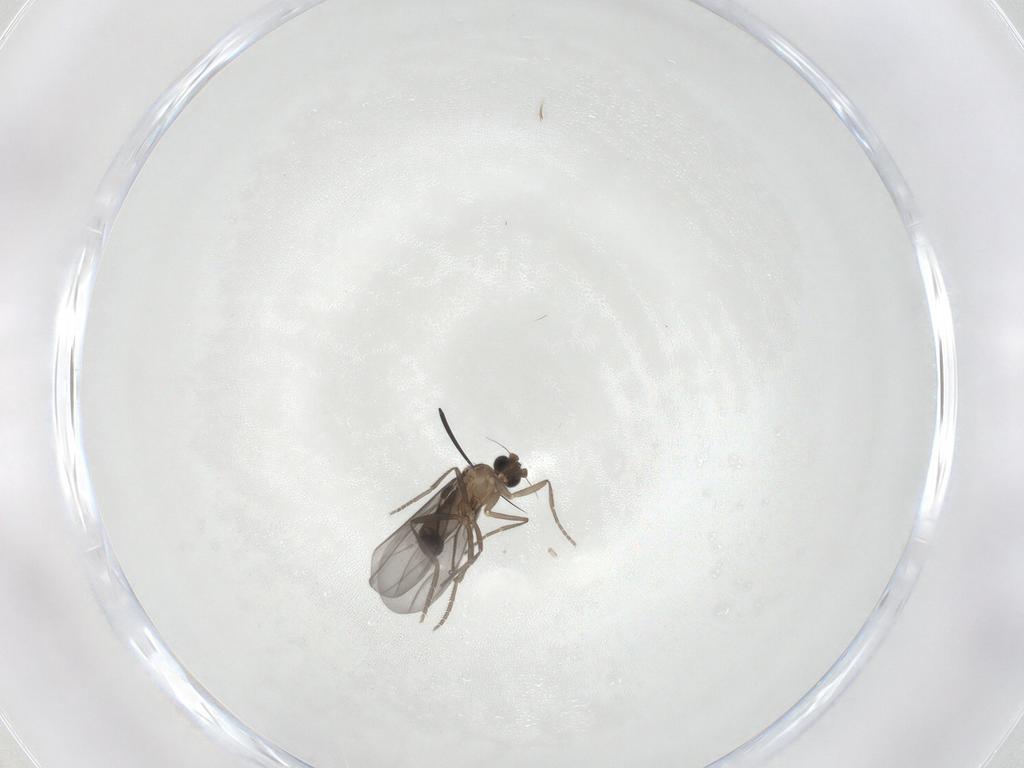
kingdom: Animalia
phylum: Arthropoda
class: Insecta
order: Diptera
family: Phoridae
